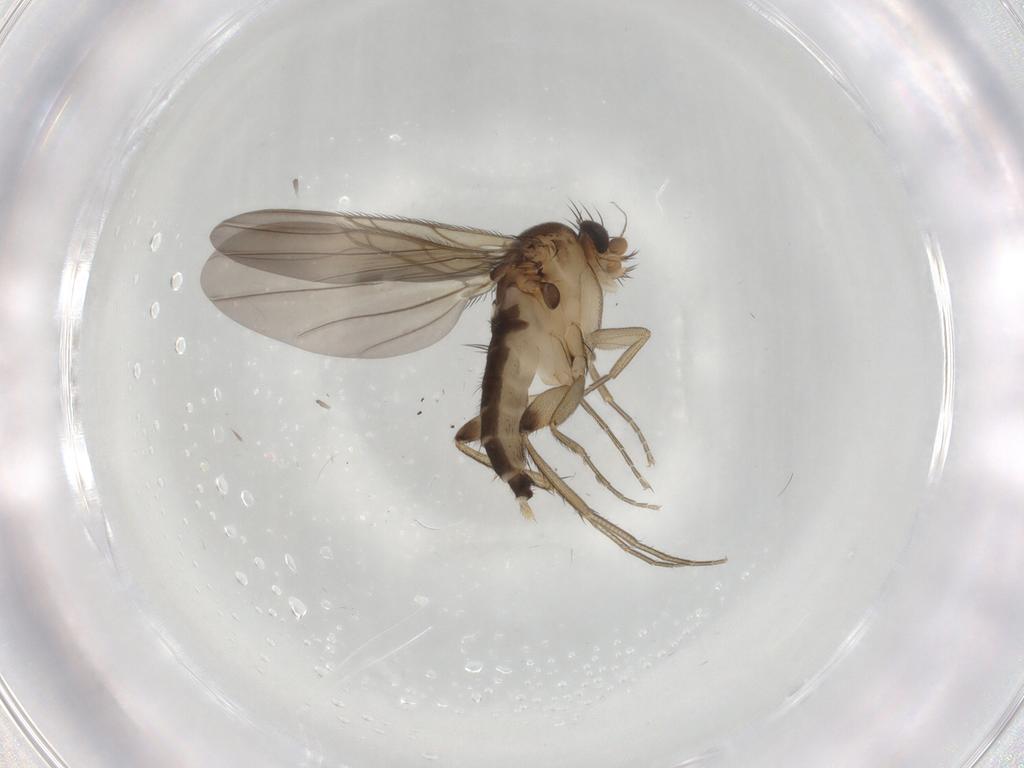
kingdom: Animalia
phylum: Arthropoda
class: Insecta
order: Diptera
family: Phoridae
